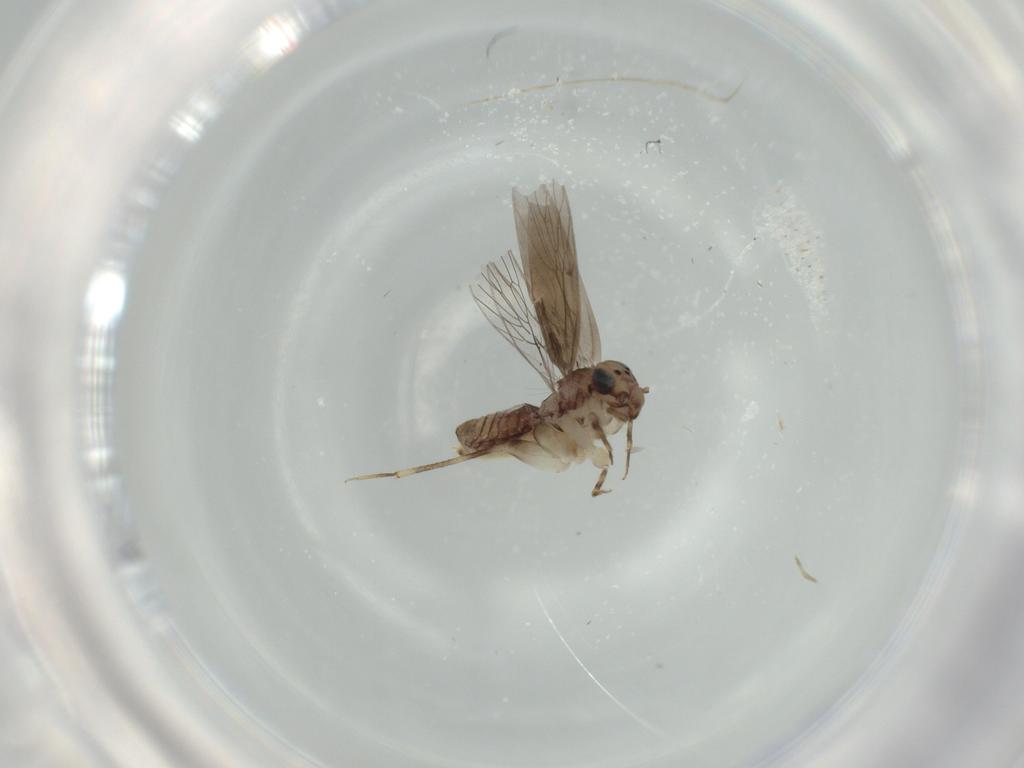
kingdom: Animalia
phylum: Arthropoda
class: Insecta
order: Psocodea
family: Lepidopsocidae
